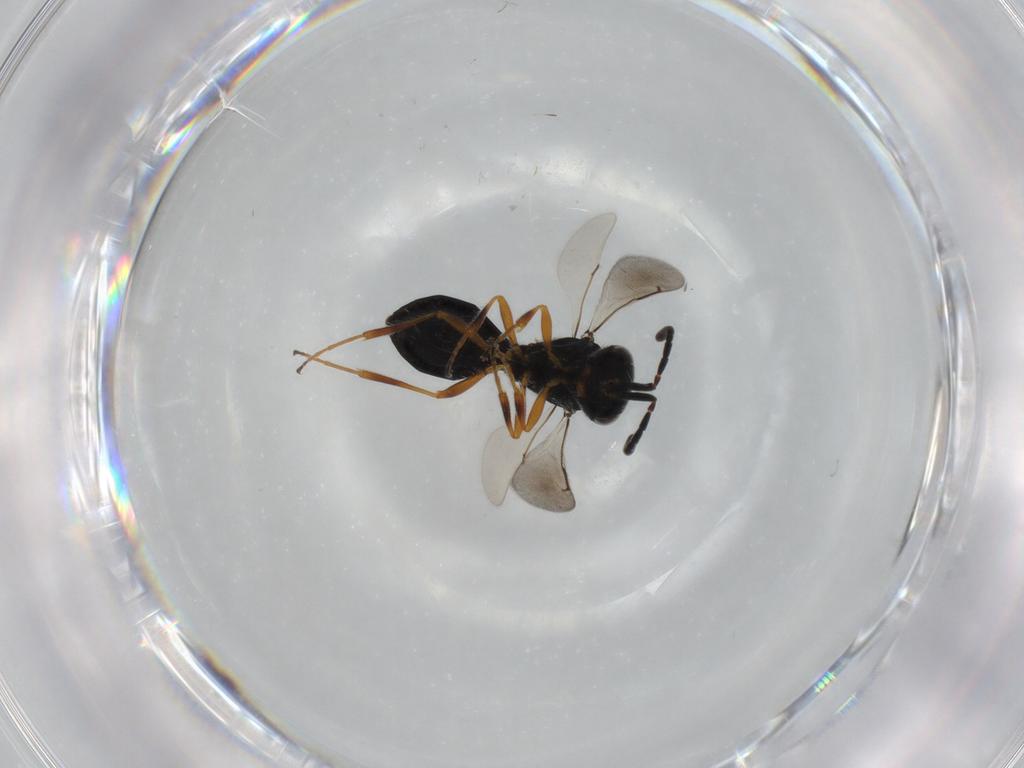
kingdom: Animalia
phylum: Arthropoda
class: Insecta
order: Hymenoptera
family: Scelionidae
